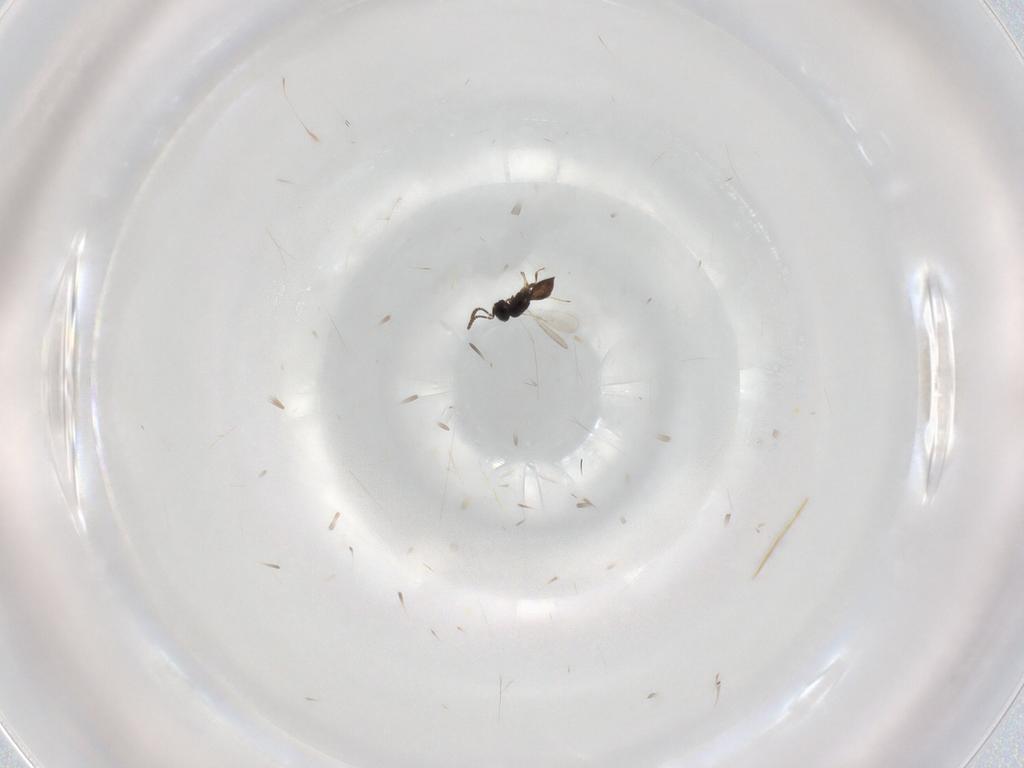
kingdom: Animalia
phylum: Arthropoda
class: Insecta
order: Hymenoptera
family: Scelionidae
